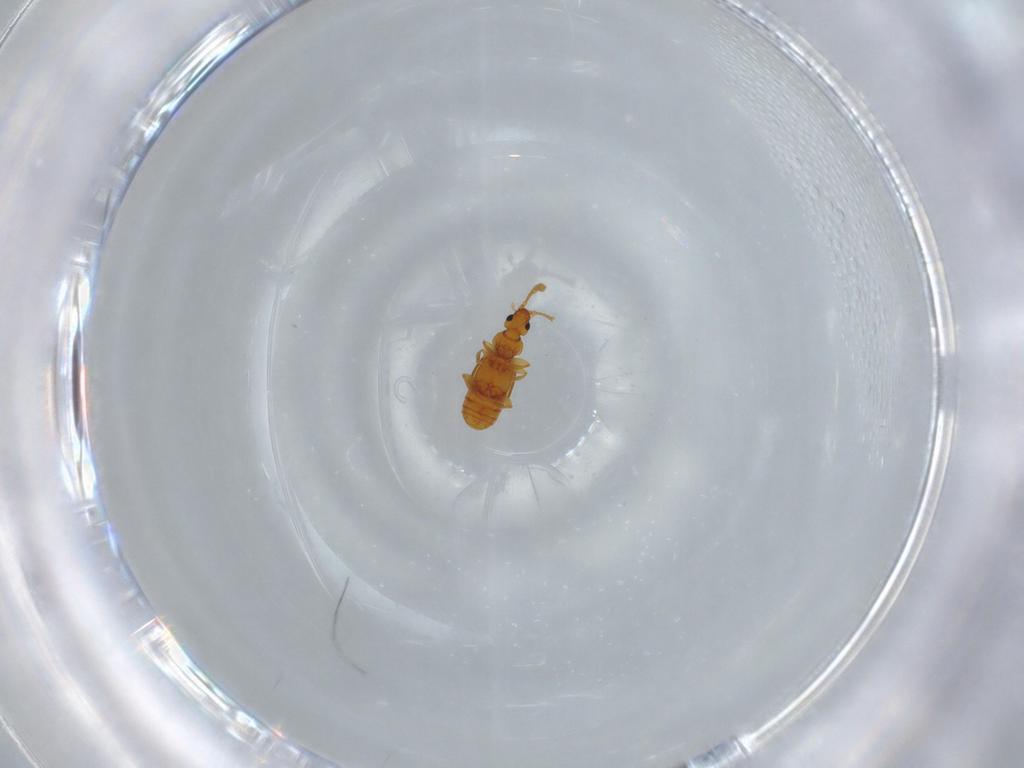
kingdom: Animalia
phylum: Arthropoda
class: Insecta
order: Coleoptera
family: Staphylinidae
